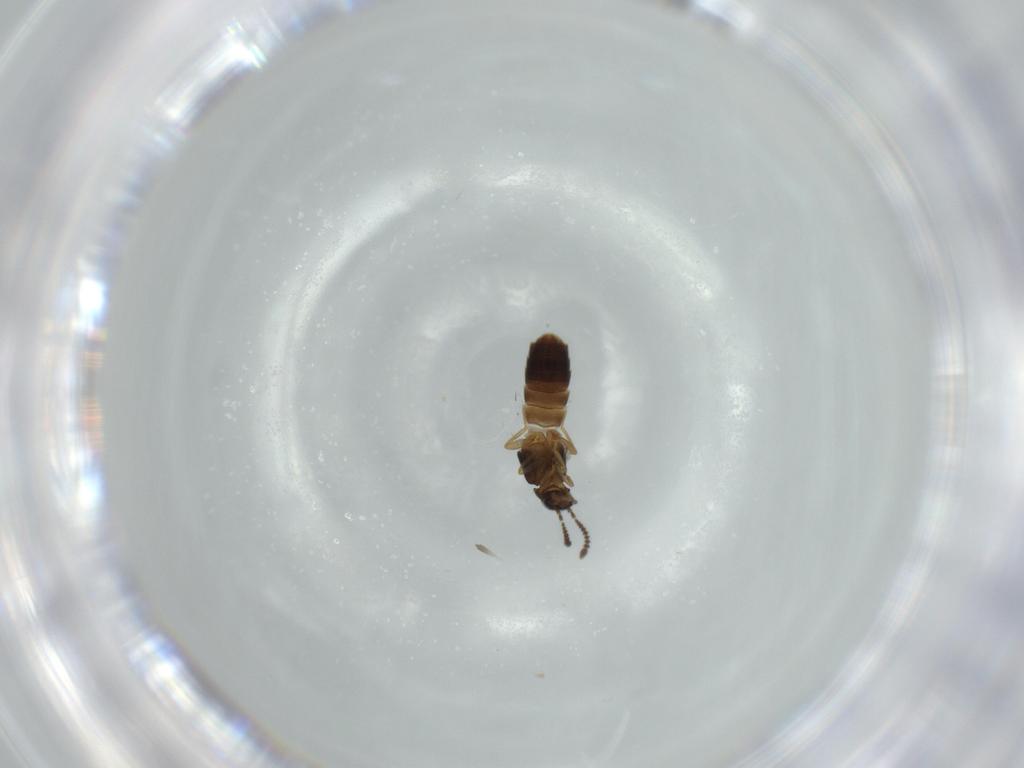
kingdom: Animalia
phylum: Arthropoda
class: Insecta
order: Coleoptera
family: Staphylinidae
